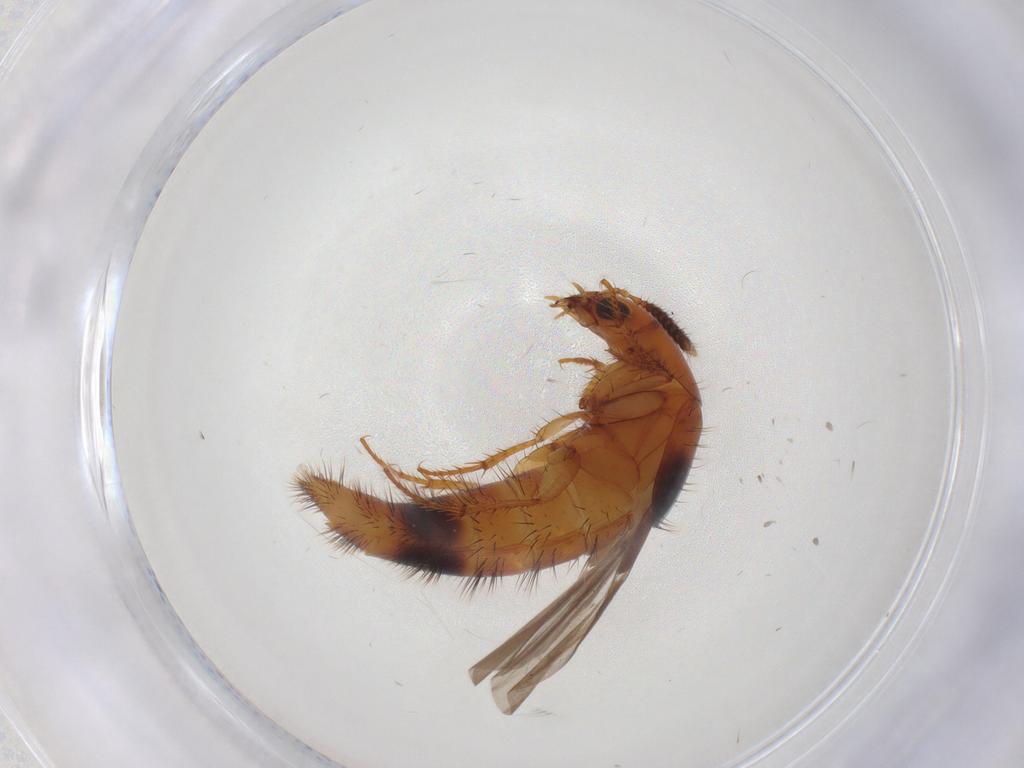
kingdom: Animalia
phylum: Arthropoda
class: Insecta
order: Coleoptera
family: Staphylinidae
